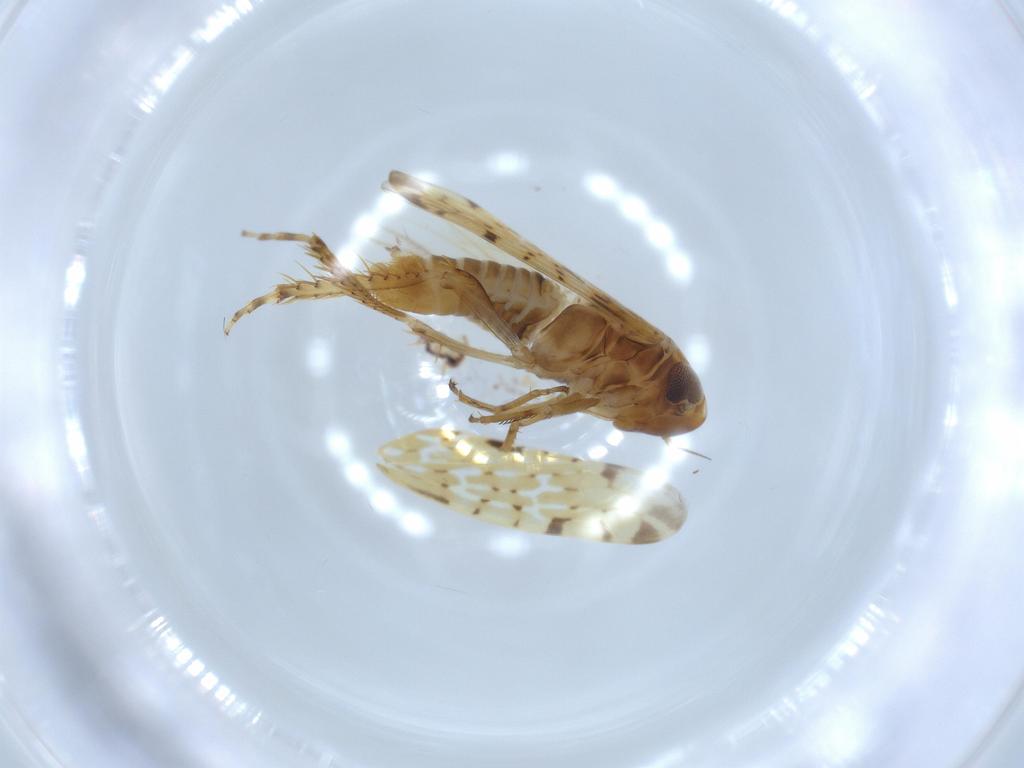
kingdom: Animalia
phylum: Arthropoda
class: Insecta
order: Hemiptera
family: Cicadellidae
